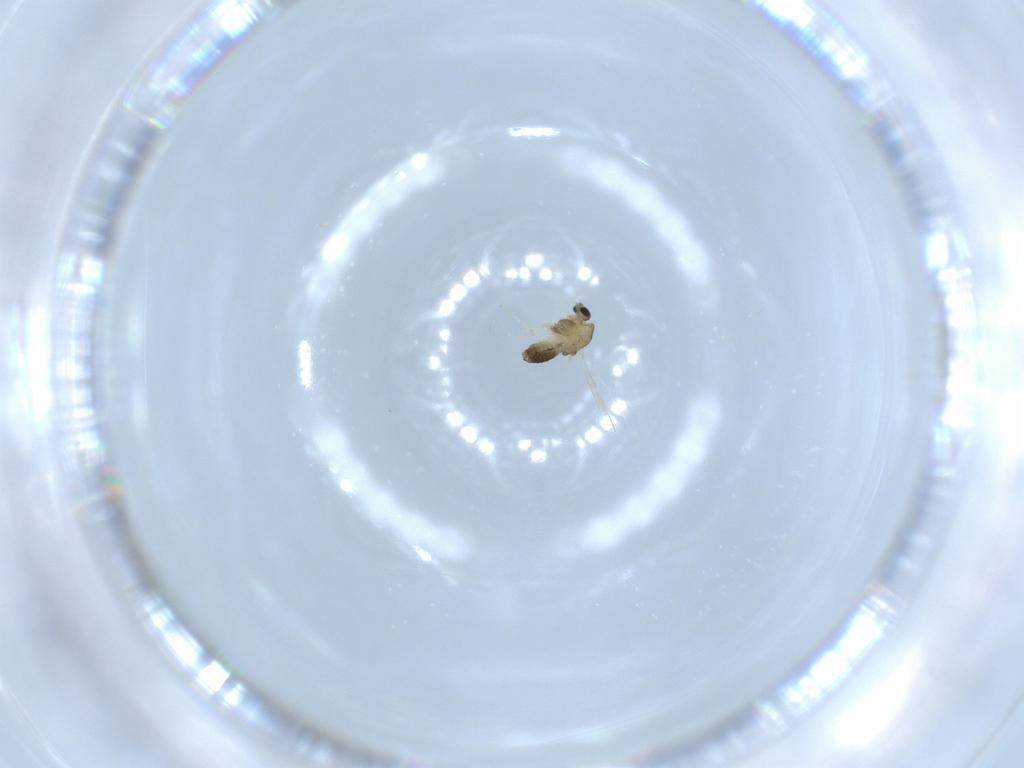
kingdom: Animalia
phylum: Arthropoda
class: Insecta
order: Diptera
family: Chironomidae
